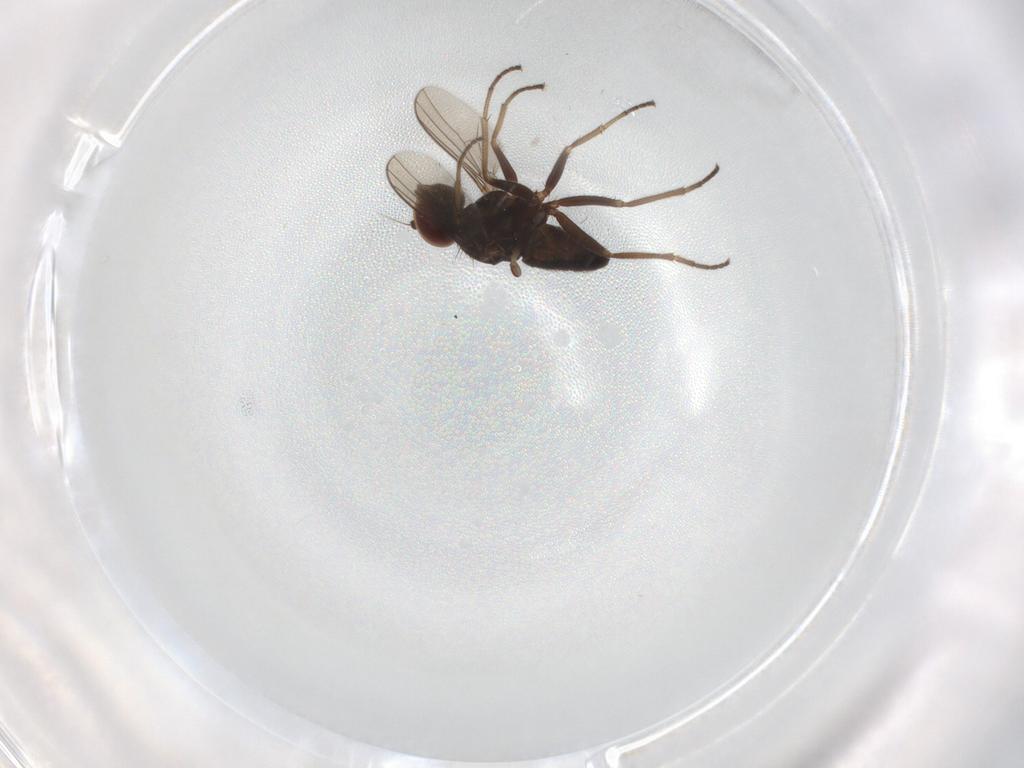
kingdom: Animalia
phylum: Arthropoda
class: Insecta
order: Diptera
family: Dolichopodidae
